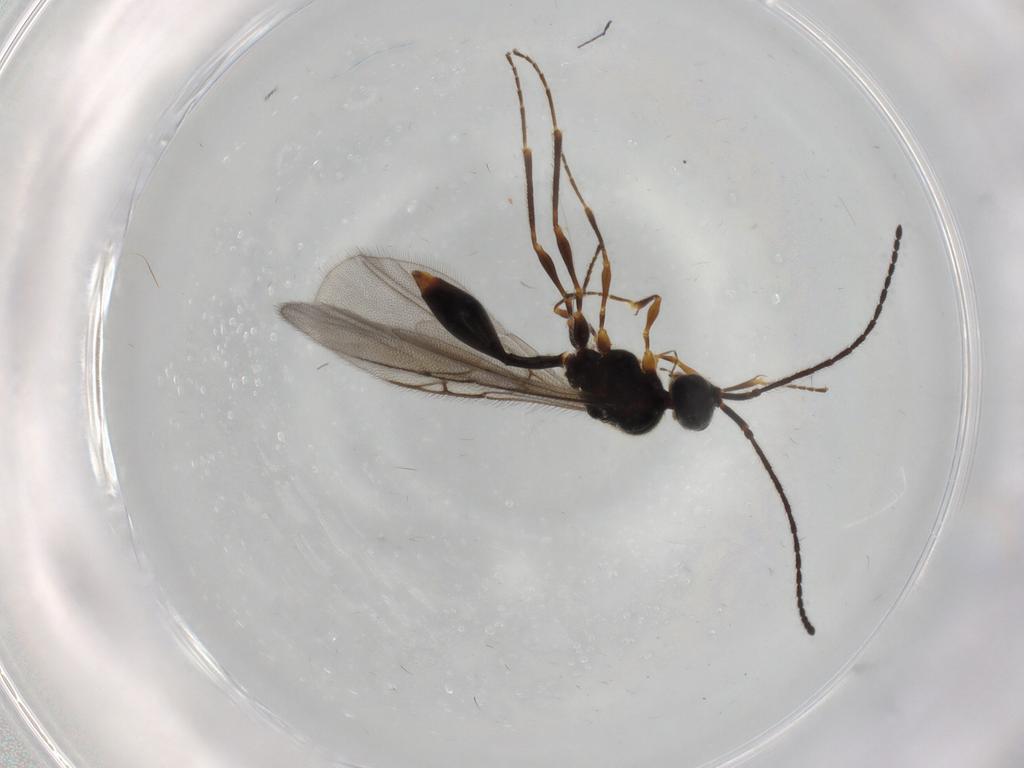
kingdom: Animalia
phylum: Arthropoda
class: Insecta
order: Hymenoptera
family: Diapriidae
